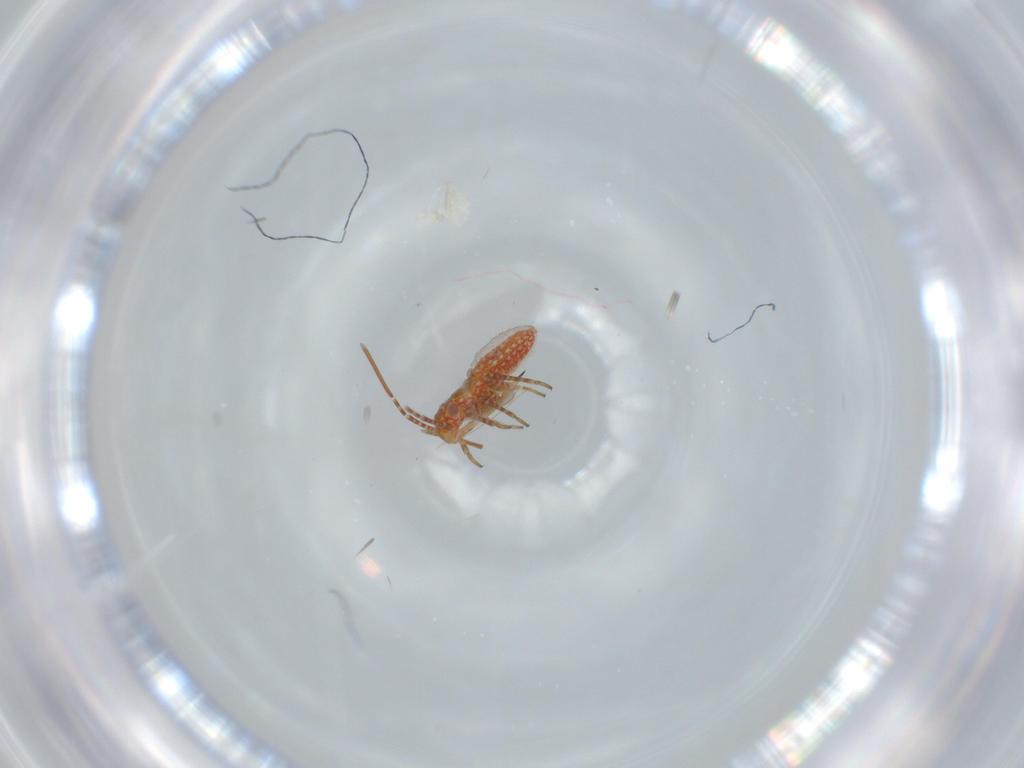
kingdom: Animalia
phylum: Arthropoda
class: Insecta
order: Hemiptera
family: Miridae
